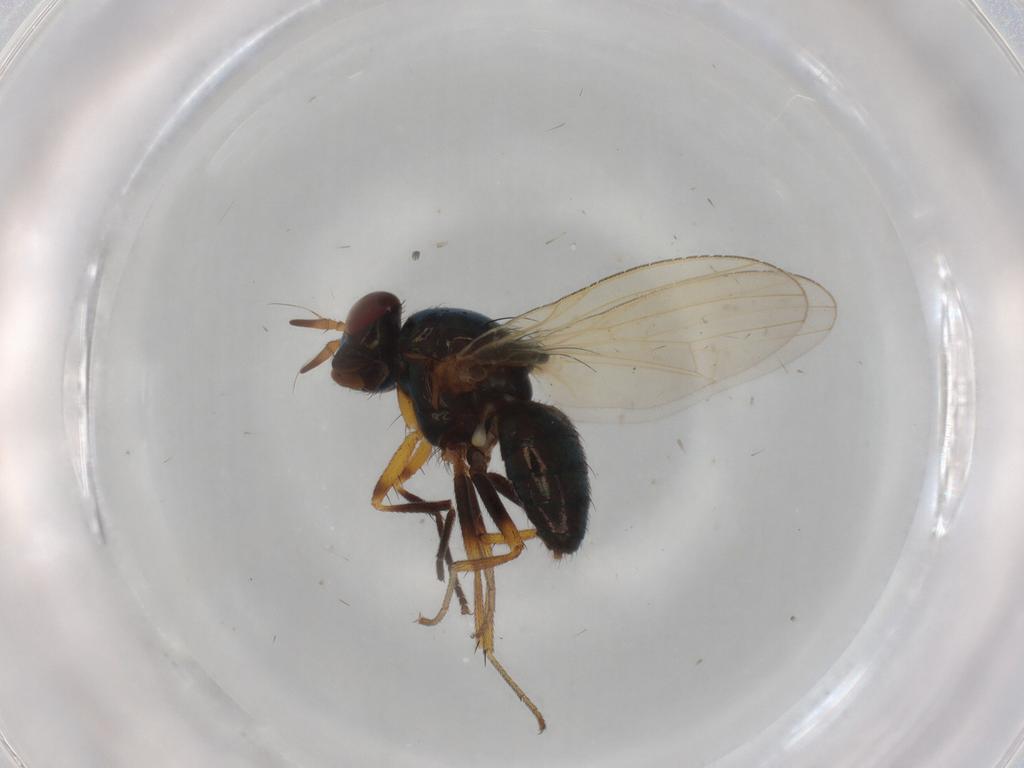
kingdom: Animalia
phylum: Arthropoda
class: Insecta
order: Diptera
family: Lauxaniidae
